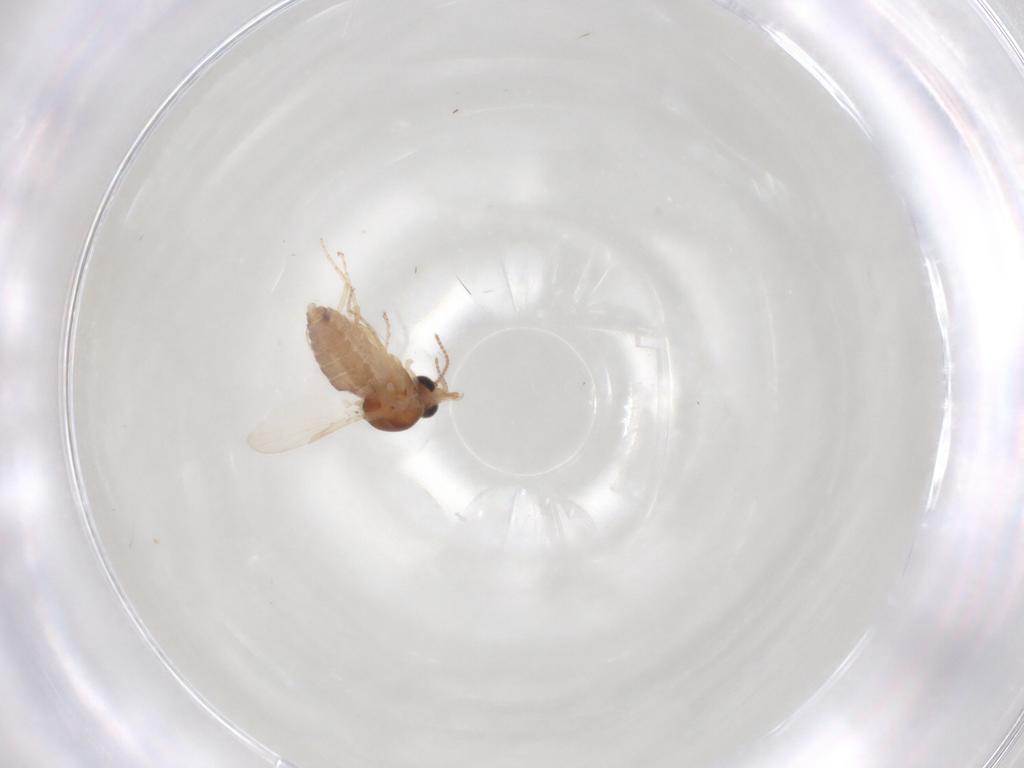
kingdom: Animalia
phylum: Arthropoda
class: Insecta
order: Diptera
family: Ceratopogonidae
